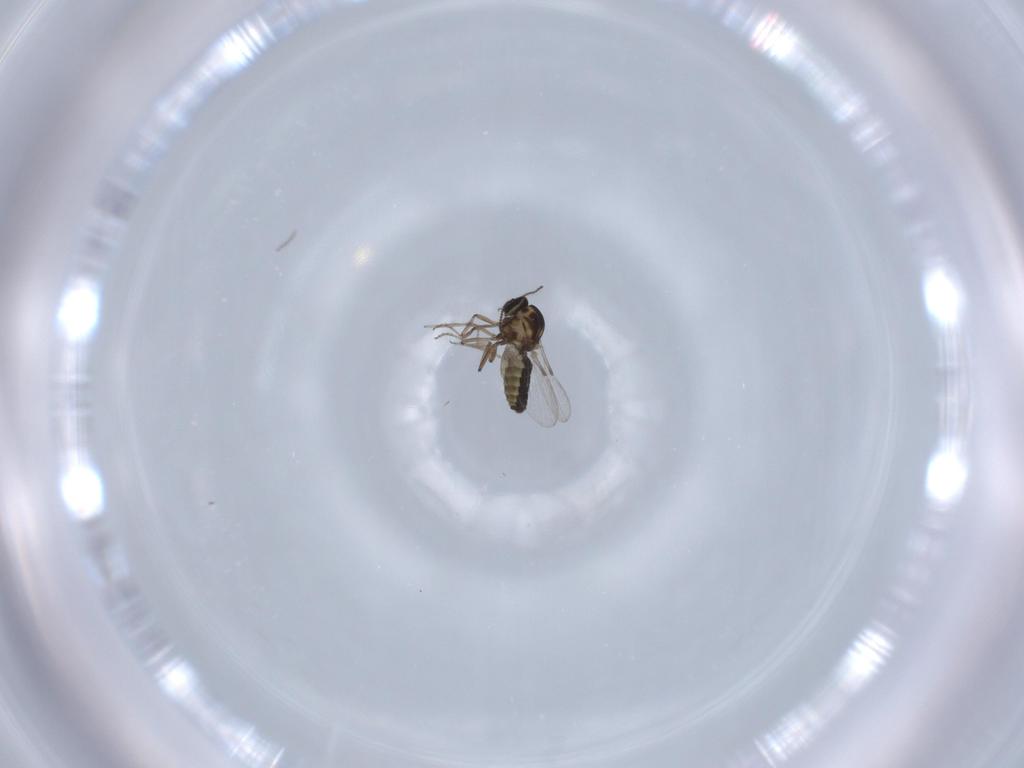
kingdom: Animalia
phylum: Arthropoda
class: Insecta
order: Diptera
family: Ceratopogonidae
